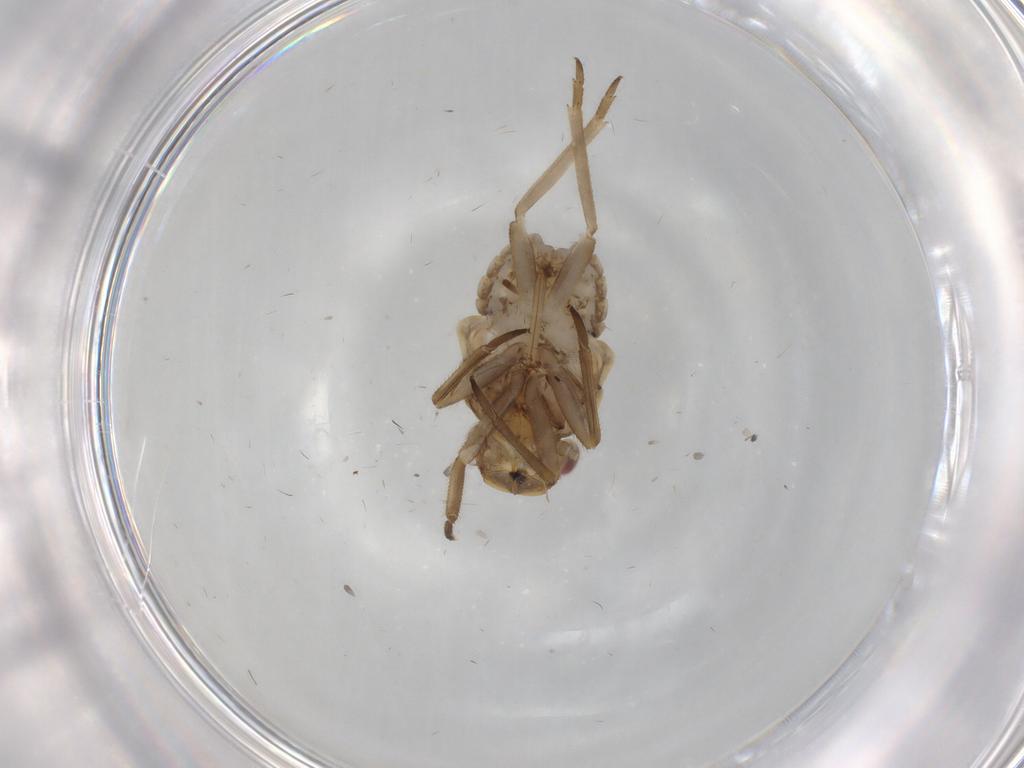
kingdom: Animalia
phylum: Arthropoda
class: Insecta
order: Hemiptera
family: Fulgoridae
